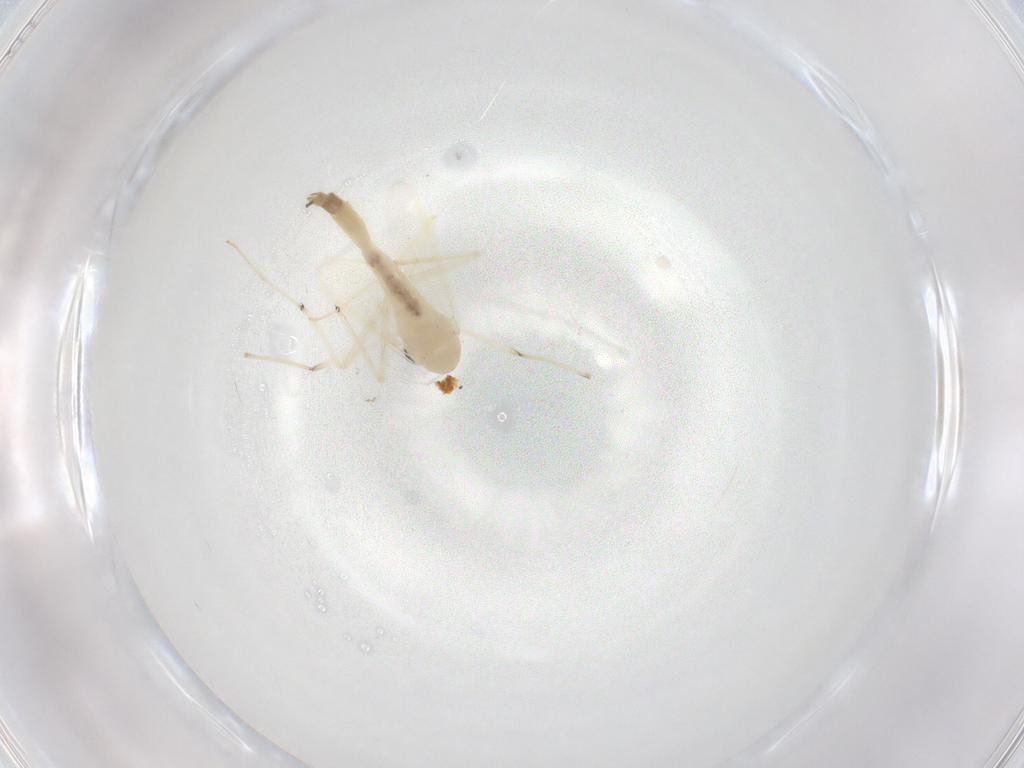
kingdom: Animalia
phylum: Arthropoda
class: Insecta
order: Diptera
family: Chironomidae
